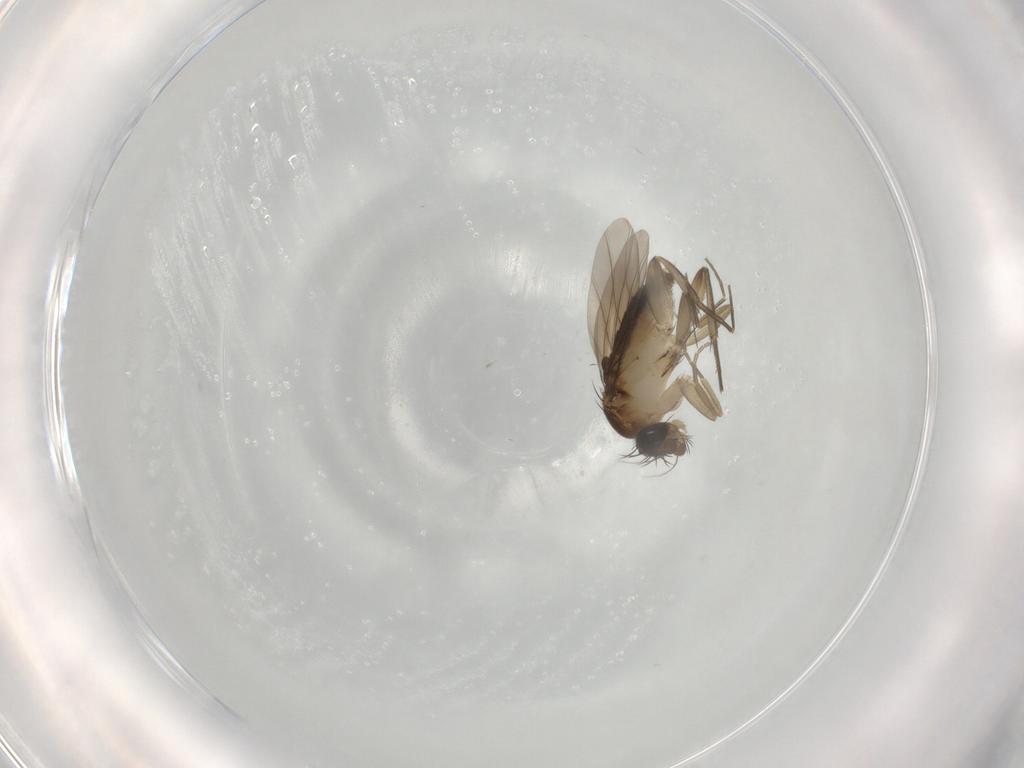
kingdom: Animalia
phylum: Arthropoda
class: Insecta
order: Diptera
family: Phoridae
